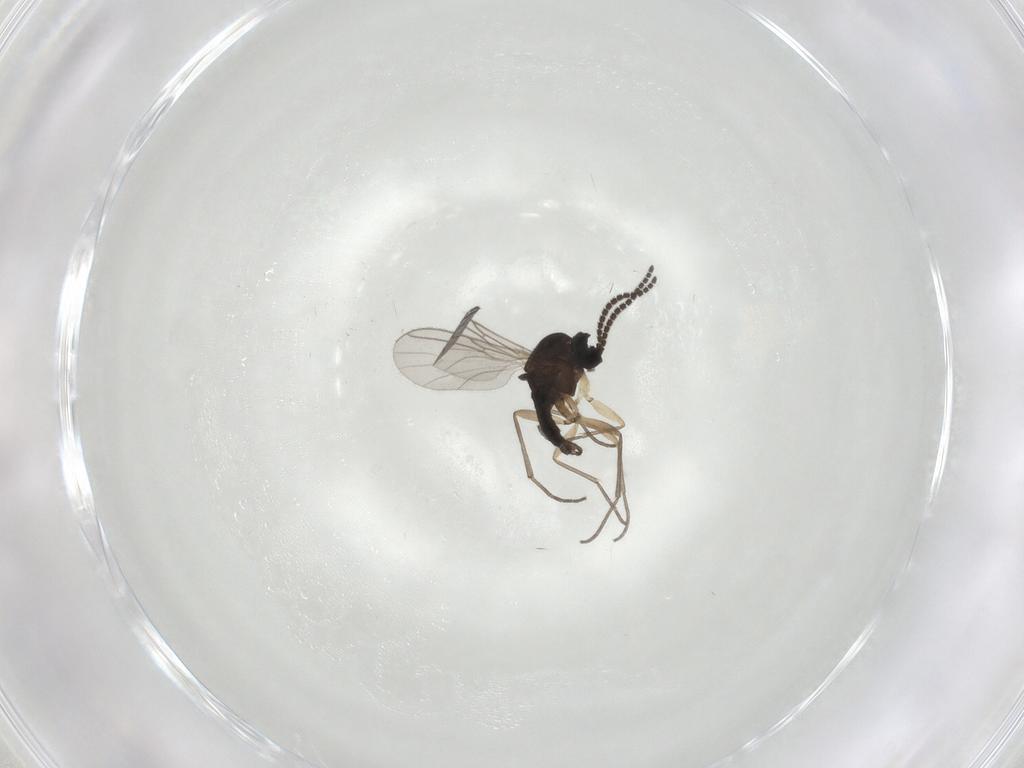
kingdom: Animalia
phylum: Arthropoda
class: Insecta
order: Diptera
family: Sciaridae
